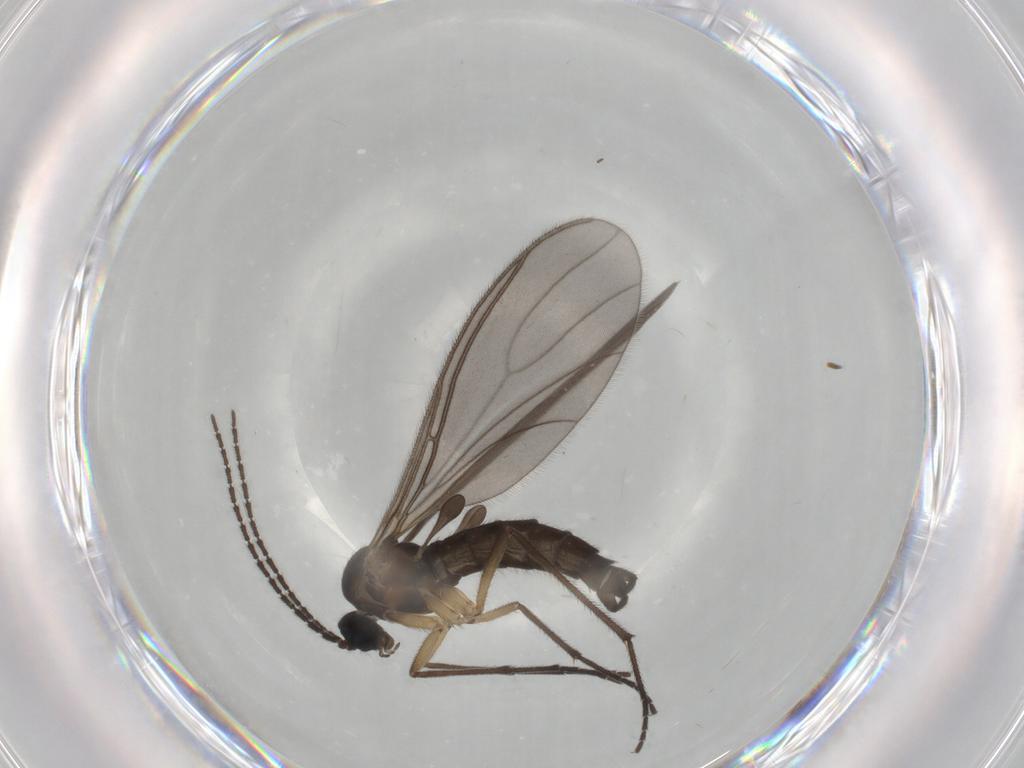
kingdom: Animalia
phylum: Arthropoda
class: Insecta
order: Diptera
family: Sciaridae
